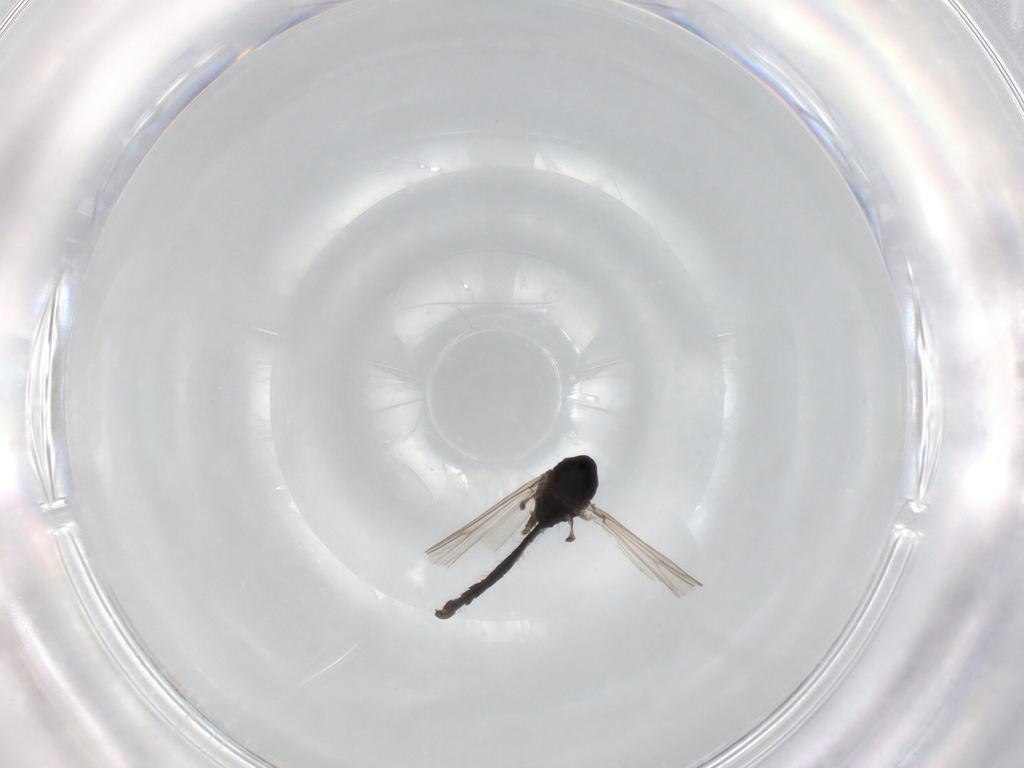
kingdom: Animalia
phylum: Arthropoda
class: Insecta
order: Diptera
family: Chironomidae
